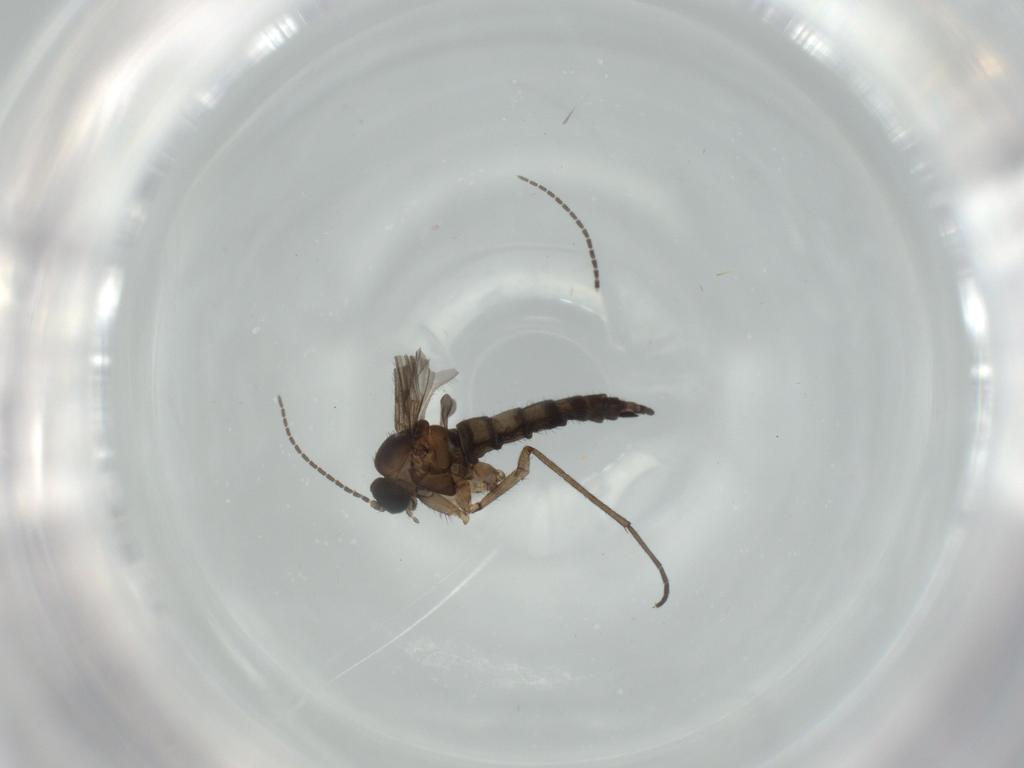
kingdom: Animalia
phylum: Arthropoda
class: Insecta
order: Diptera
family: Sciaridae
